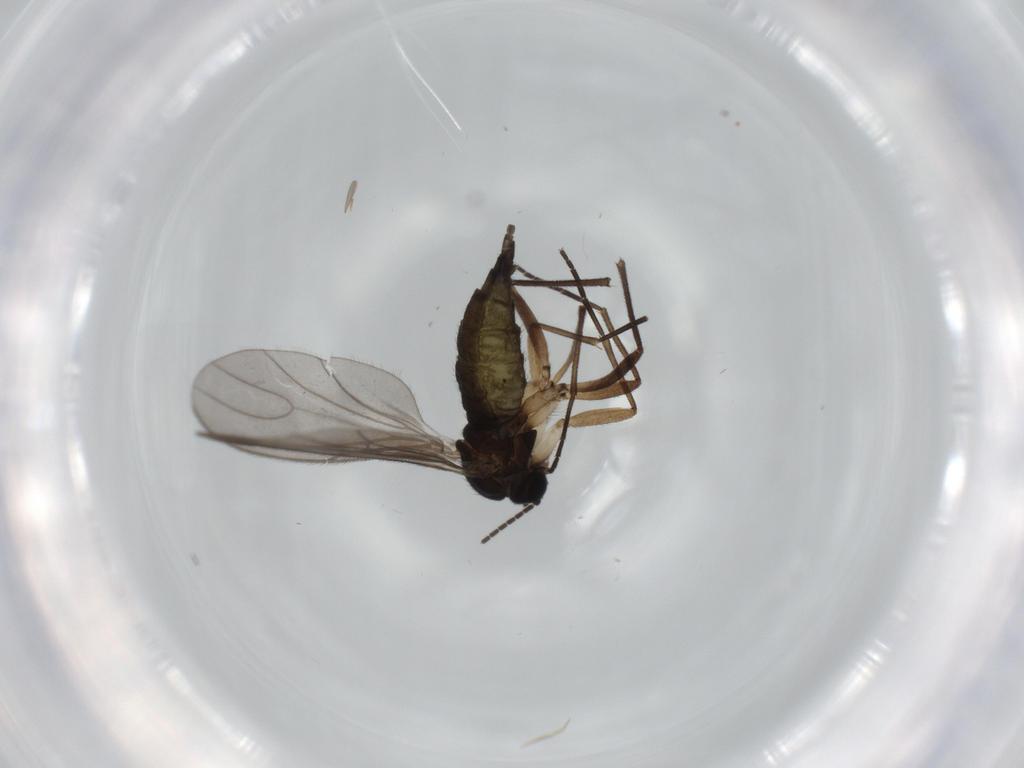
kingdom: Animalia
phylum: Arthropoda
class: Insecta
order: Diptera
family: Sciaridae
